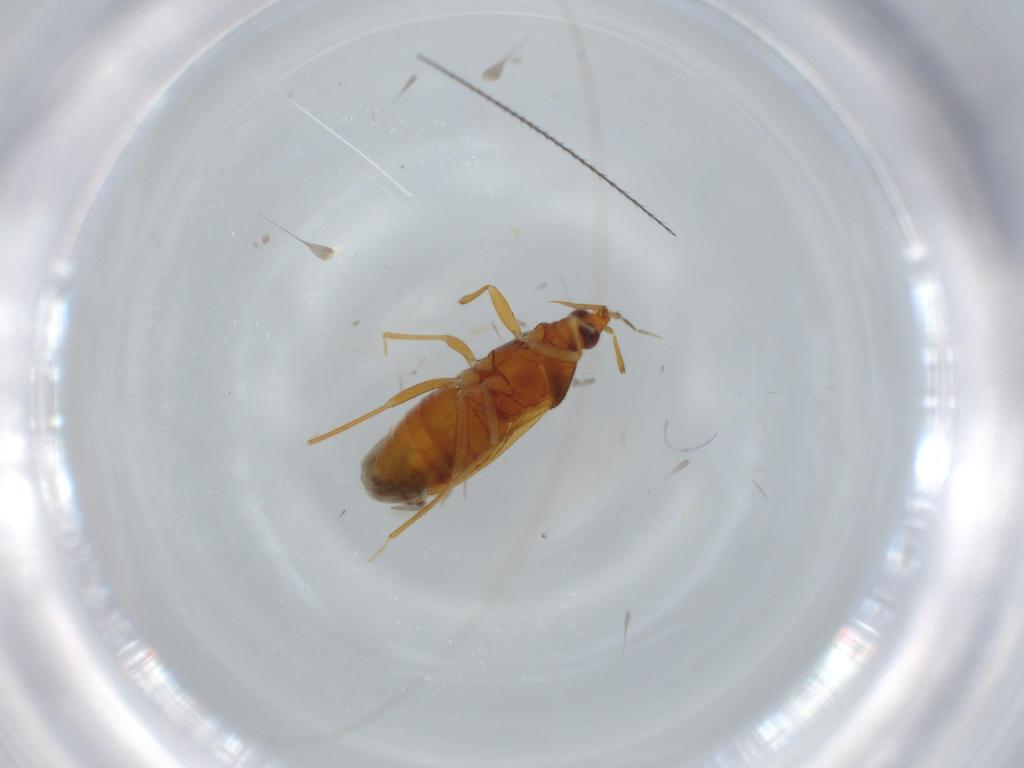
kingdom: Animalia
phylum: Arthropoda
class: Insecta
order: Hemiptera
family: Anthocoridae
